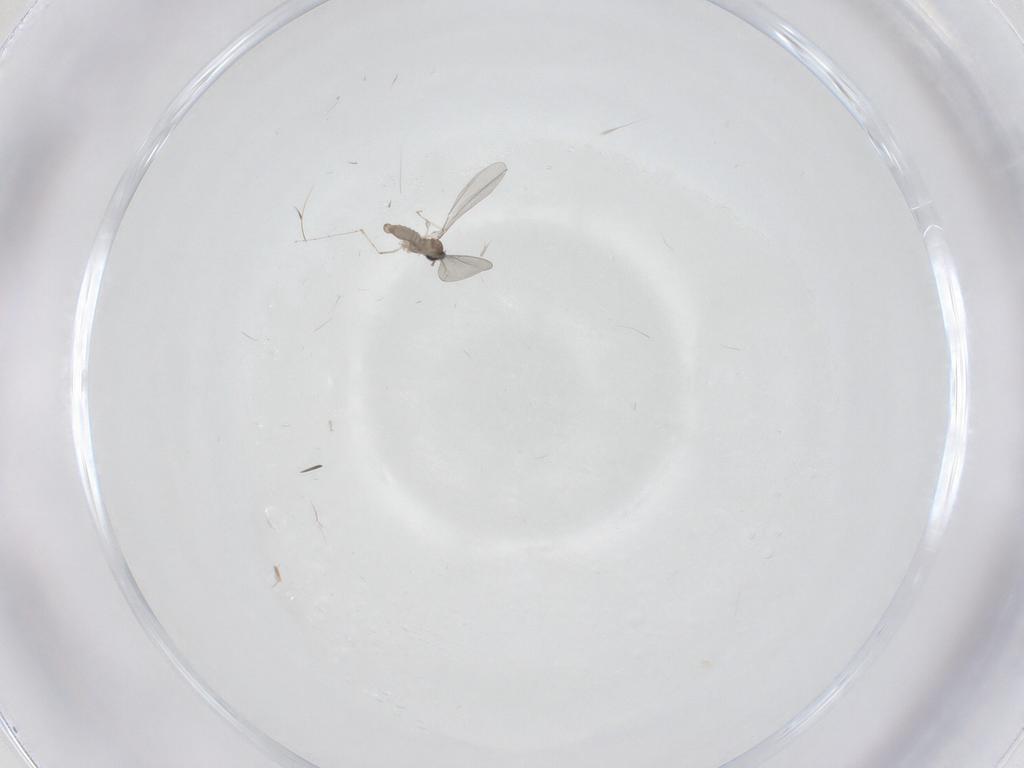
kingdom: Animalia
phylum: Arthropoda
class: Insecta
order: Diptera
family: Cecidomyiidae
